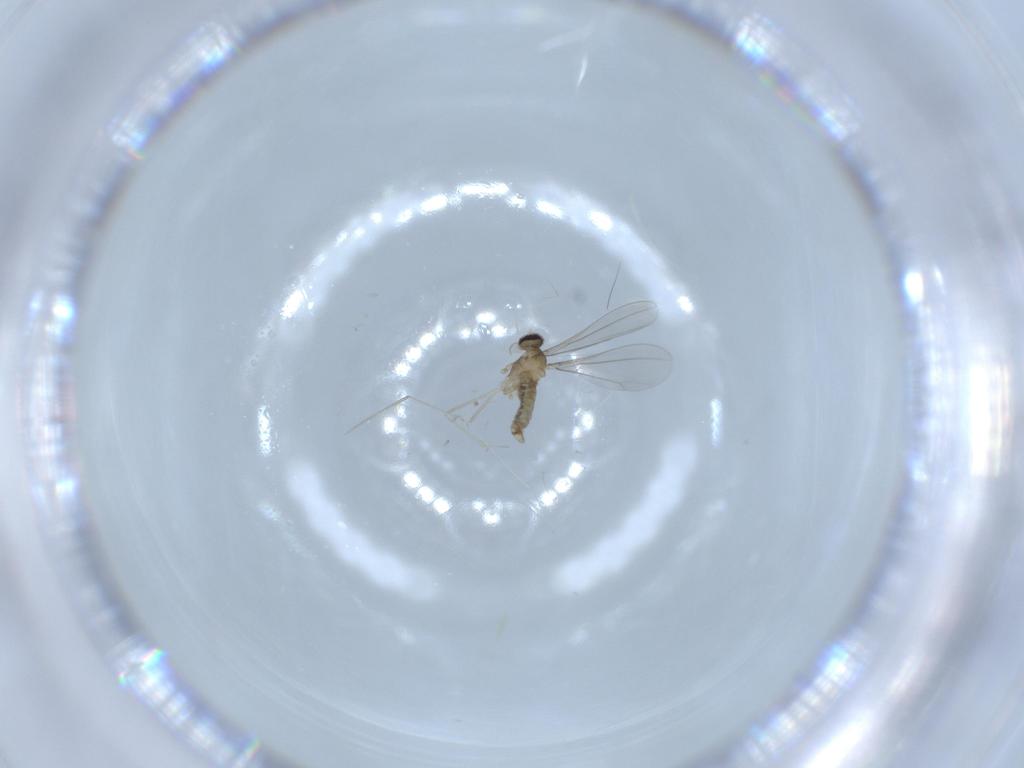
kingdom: Animalia
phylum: Arthropoda
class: Insecta
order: Diptera
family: Cecidomyiidae
